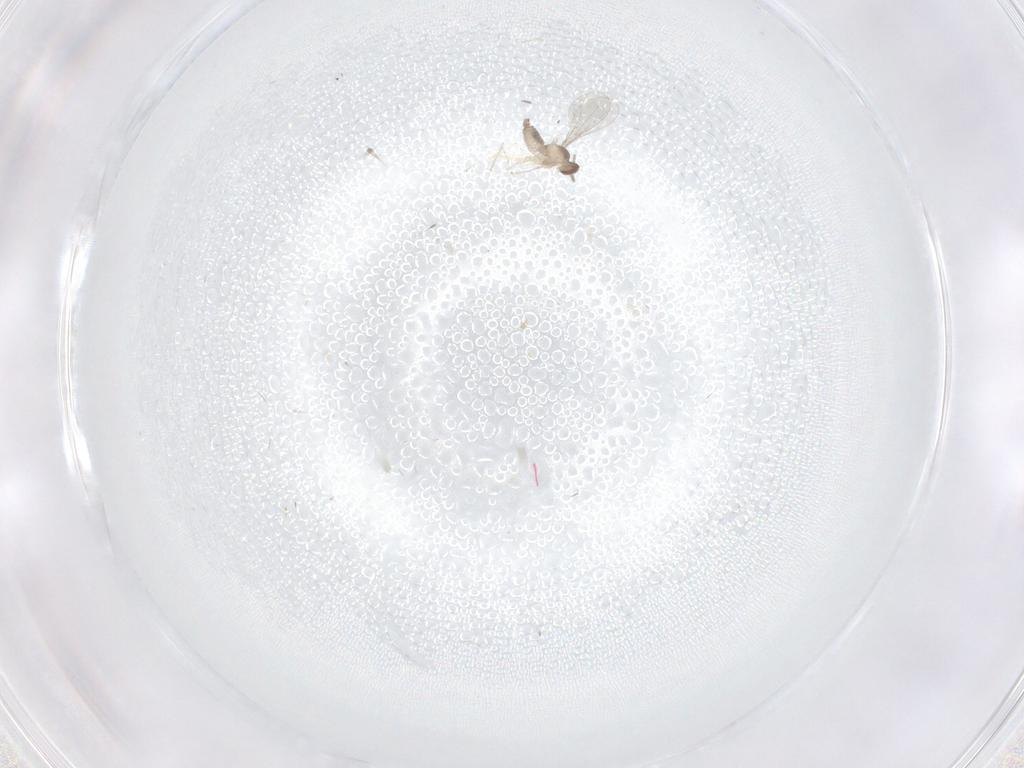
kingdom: Animalia
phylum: Arthropoda
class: Insecta
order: Diptera
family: Cecidomyiidae
